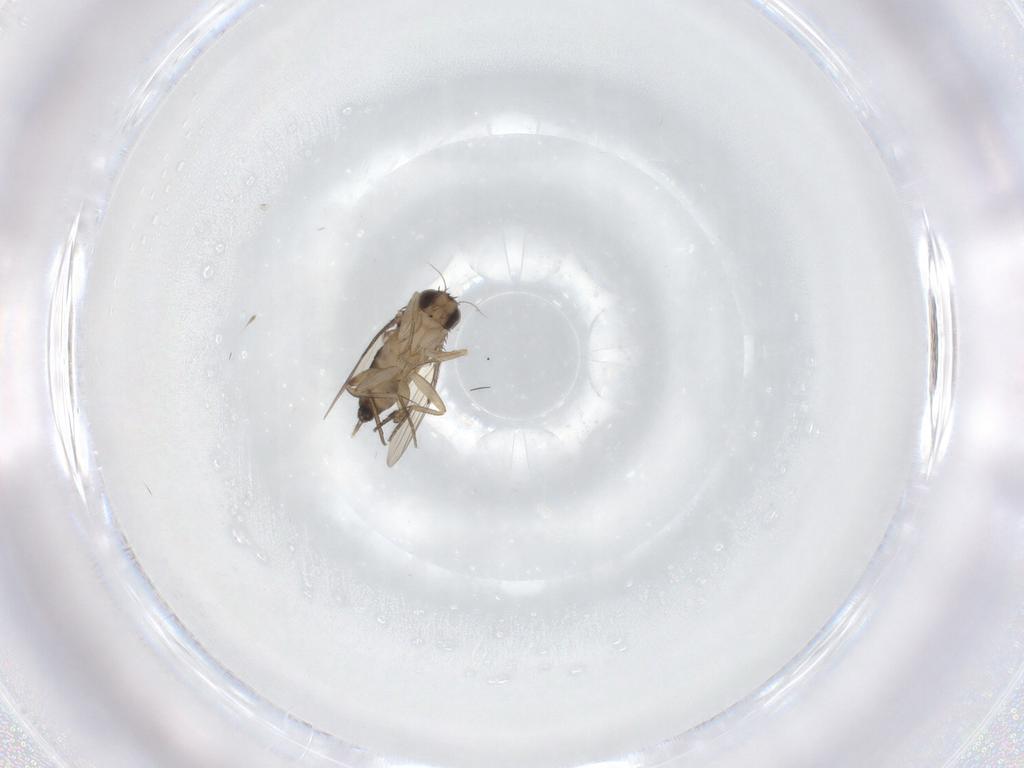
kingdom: Animalia
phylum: Arthropoda
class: Insecta
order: Diptera
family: Phoridae
